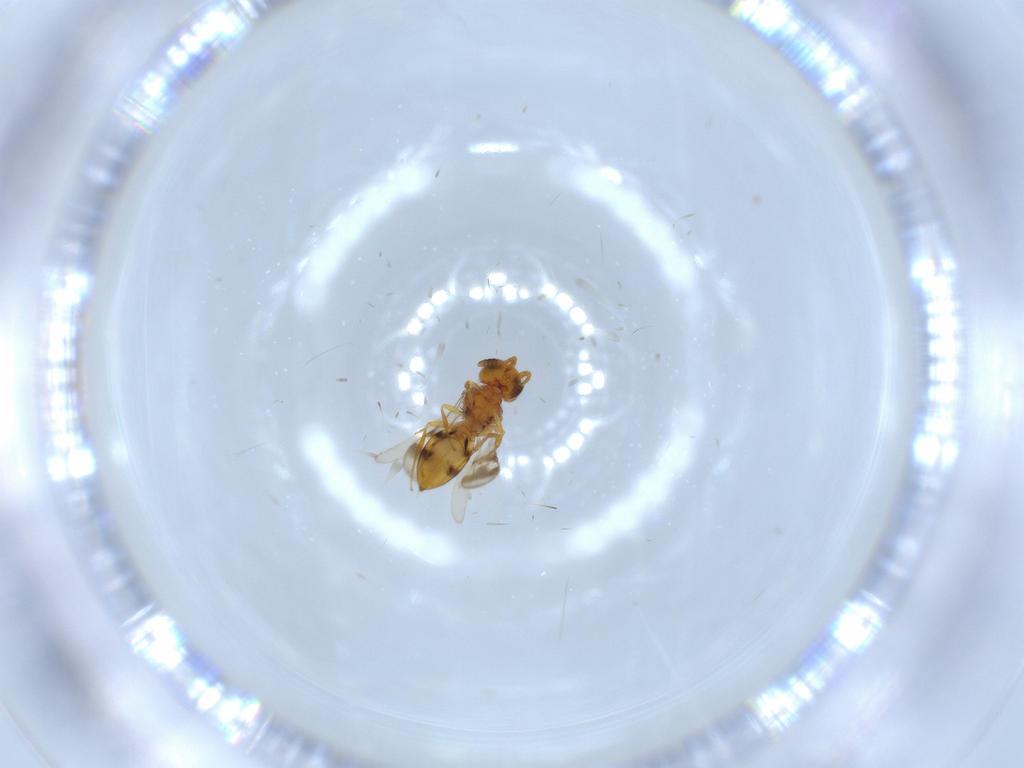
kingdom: Animalia
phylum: Arthropoda
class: Insecta
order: Hymenoptera
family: Scelionidae
